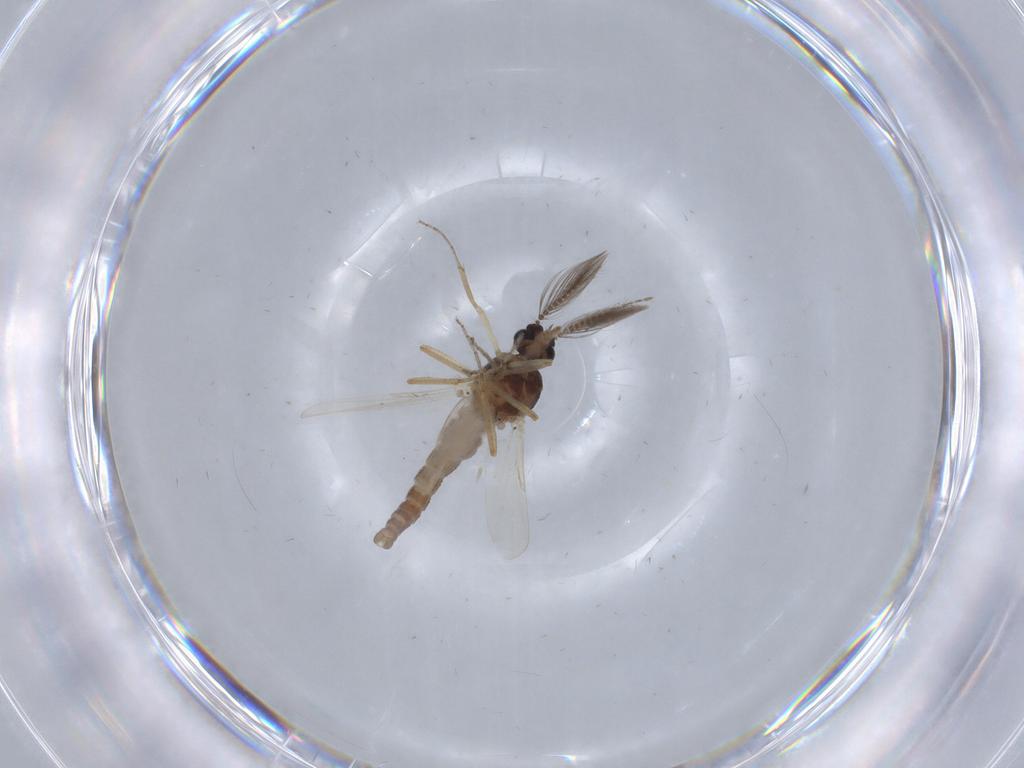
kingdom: Animalia
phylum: Arthropoda
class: Insecta
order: Diptera
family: Ceratopogonidae
